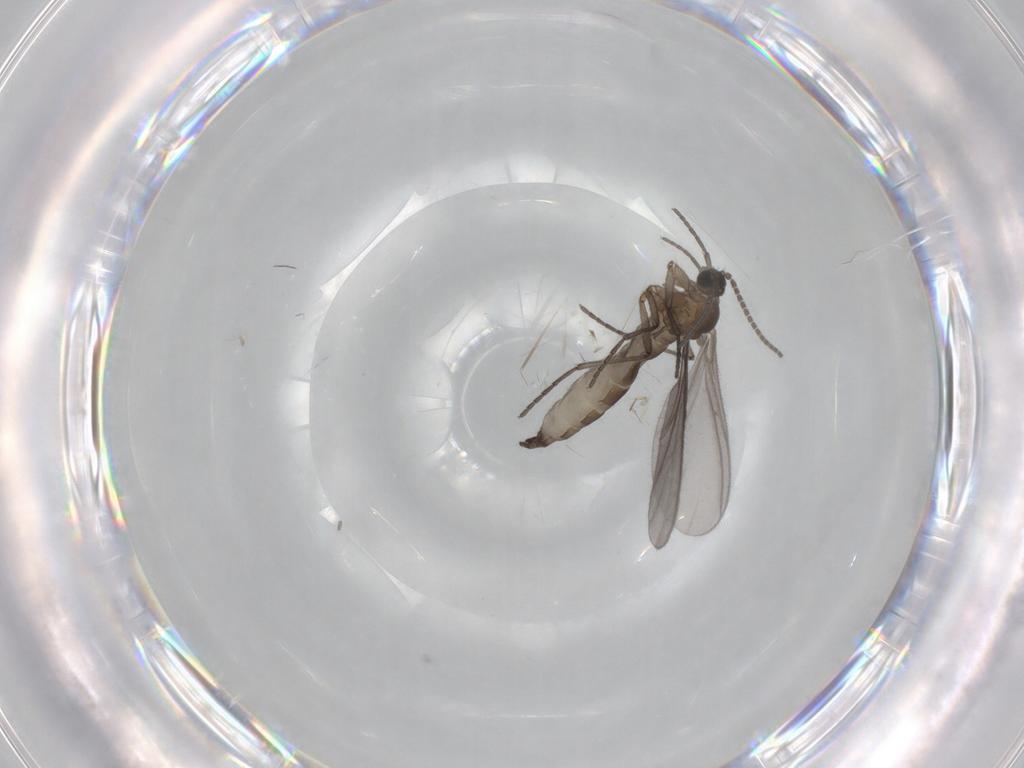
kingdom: Animalia
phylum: Arthropoda
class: Insecta
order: Diptera
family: Sciaridae
